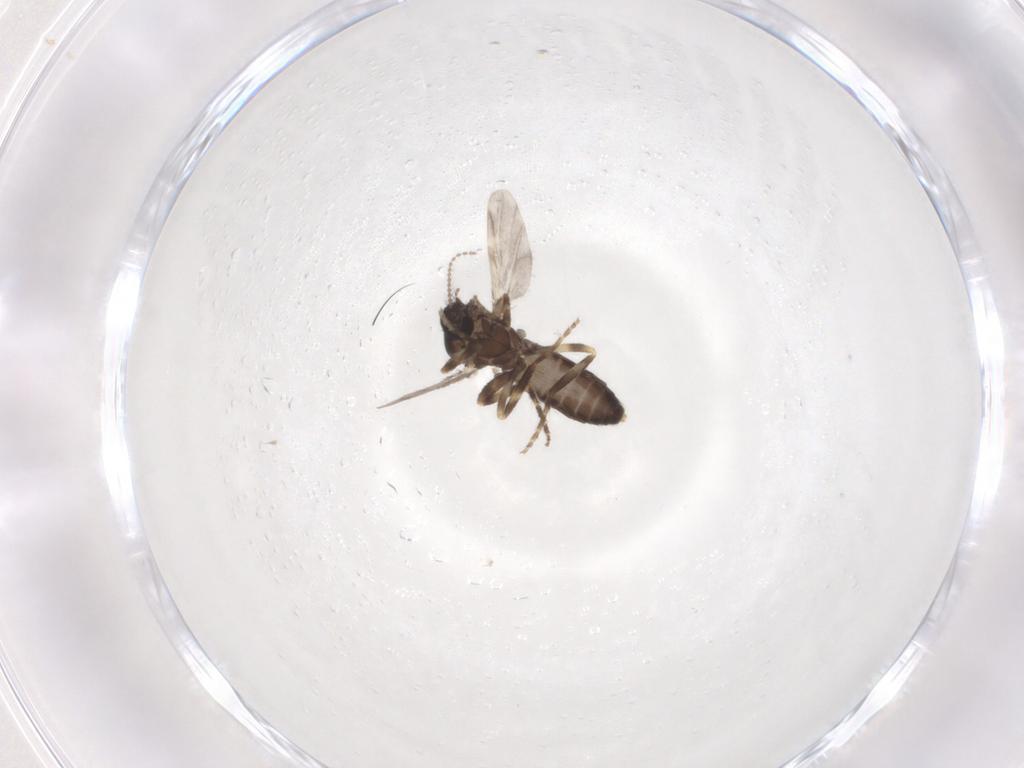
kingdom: Animalia
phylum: Arthropoda
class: Insecta
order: Diptera
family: Ceratopogonidae
